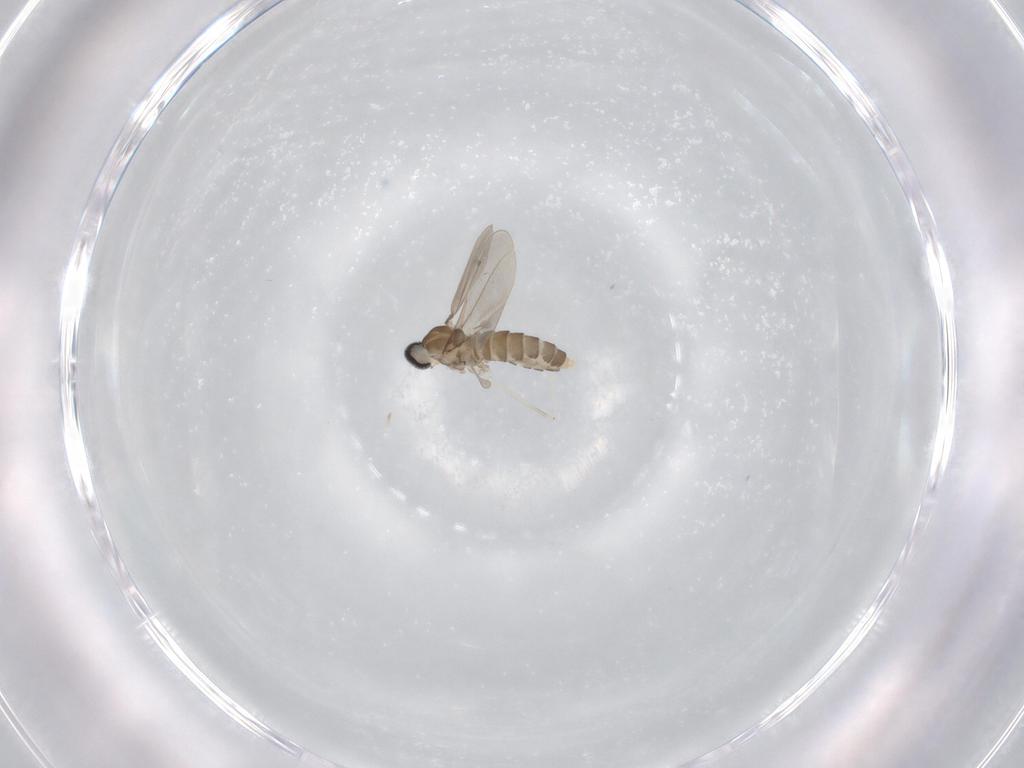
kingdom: Animalia
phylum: Arthropoda
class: Insecta
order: Diptera
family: Cecidomyiidae
